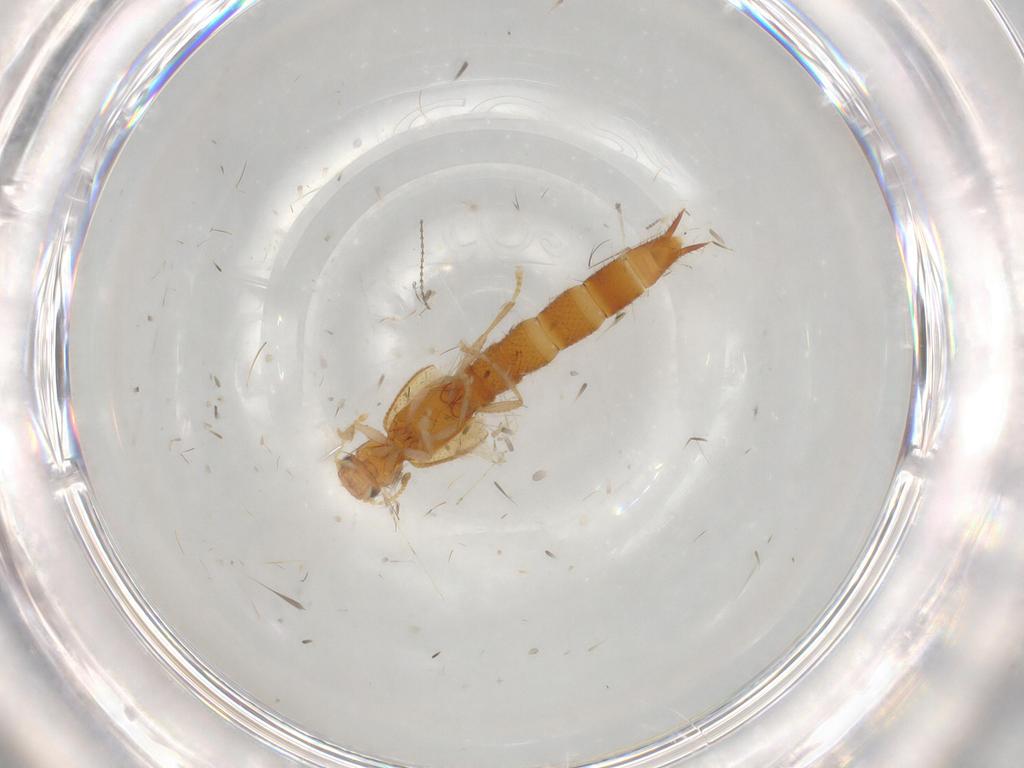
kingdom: Animalia
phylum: Arthropoda
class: Insecta
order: Coleoptera
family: Staphylinidae
